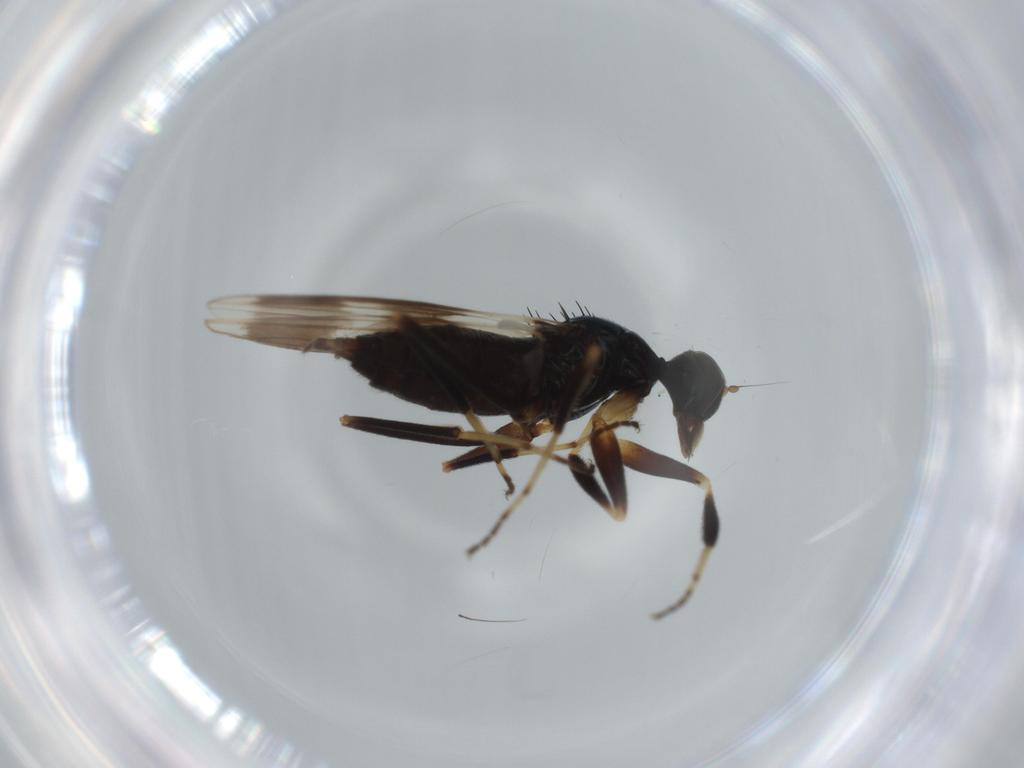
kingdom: Animalia
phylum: Arthropoda
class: Insecta
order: Diptera
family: Hybotidae
